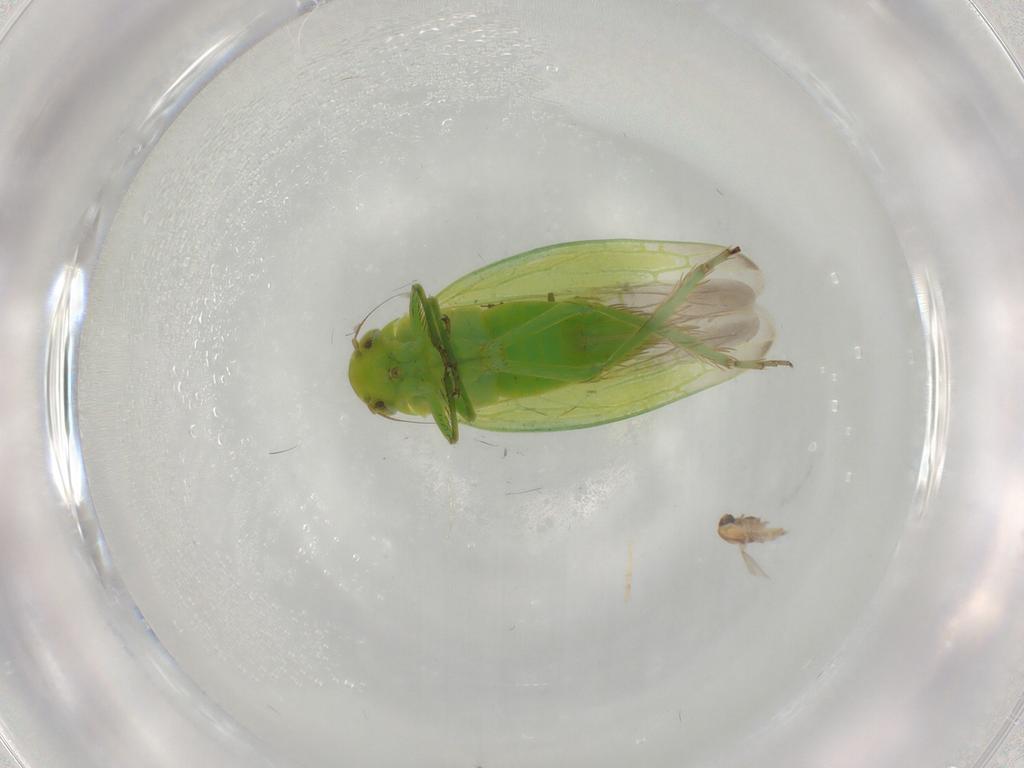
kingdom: Animalia
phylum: Arthropoda
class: Insecta
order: Hemiptera
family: Cicadellidae
